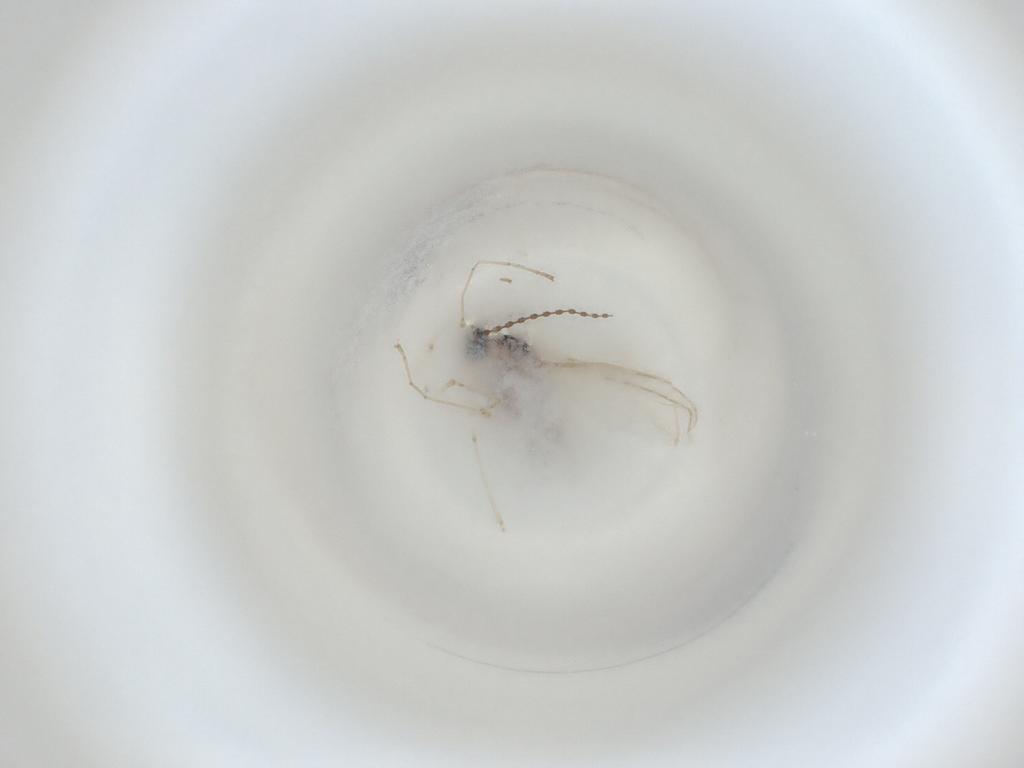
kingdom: Animalia
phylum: Arthropoda
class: Insecta
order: Diptera
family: Cecidomyiidae
